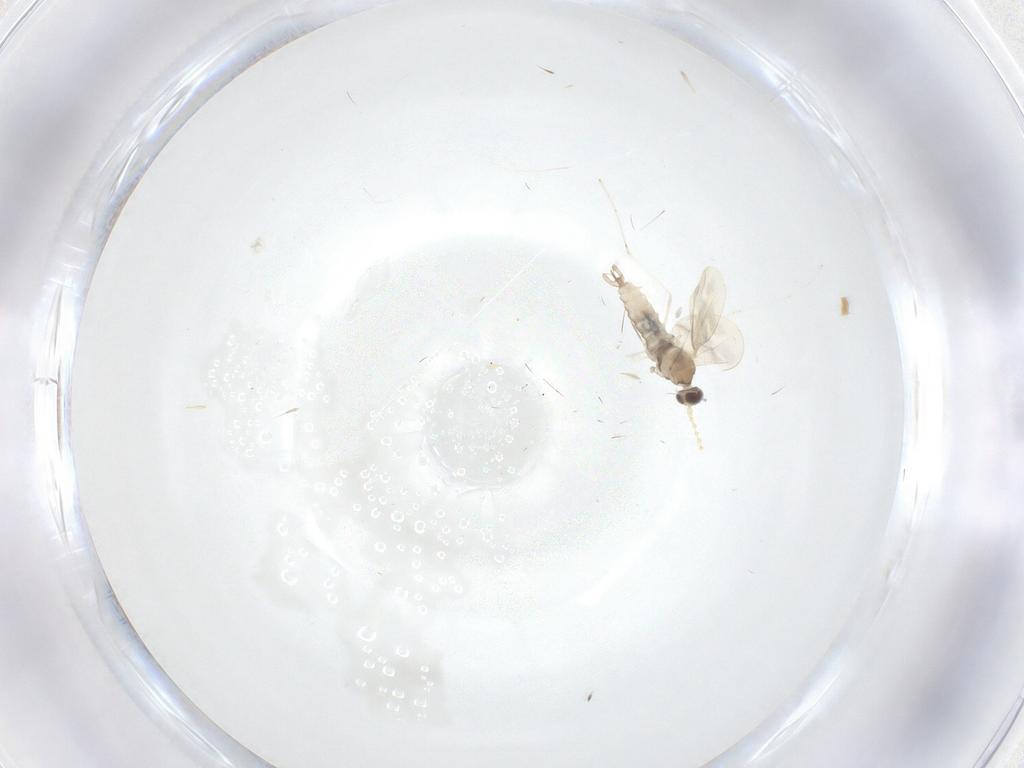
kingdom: Animalia
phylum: Arthropoda
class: Insecta
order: Diptera
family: Cecidomyiidae
